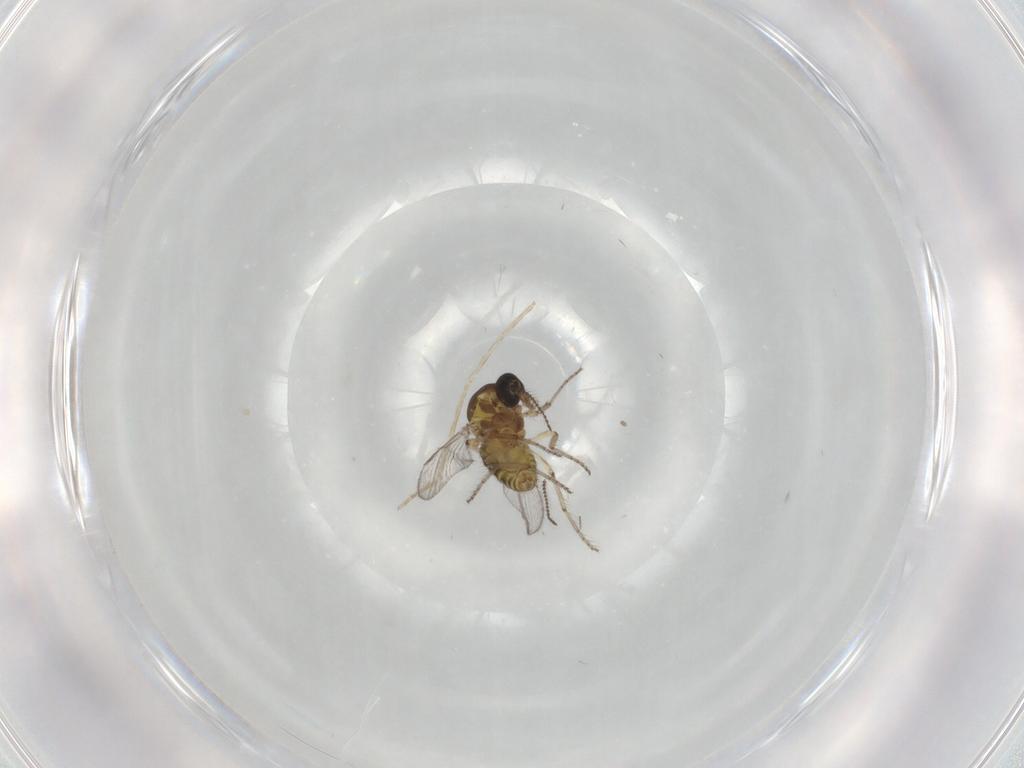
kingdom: Animalia
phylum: Arthropoda
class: Insecta
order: Diptera
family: Ceratopogonidae
